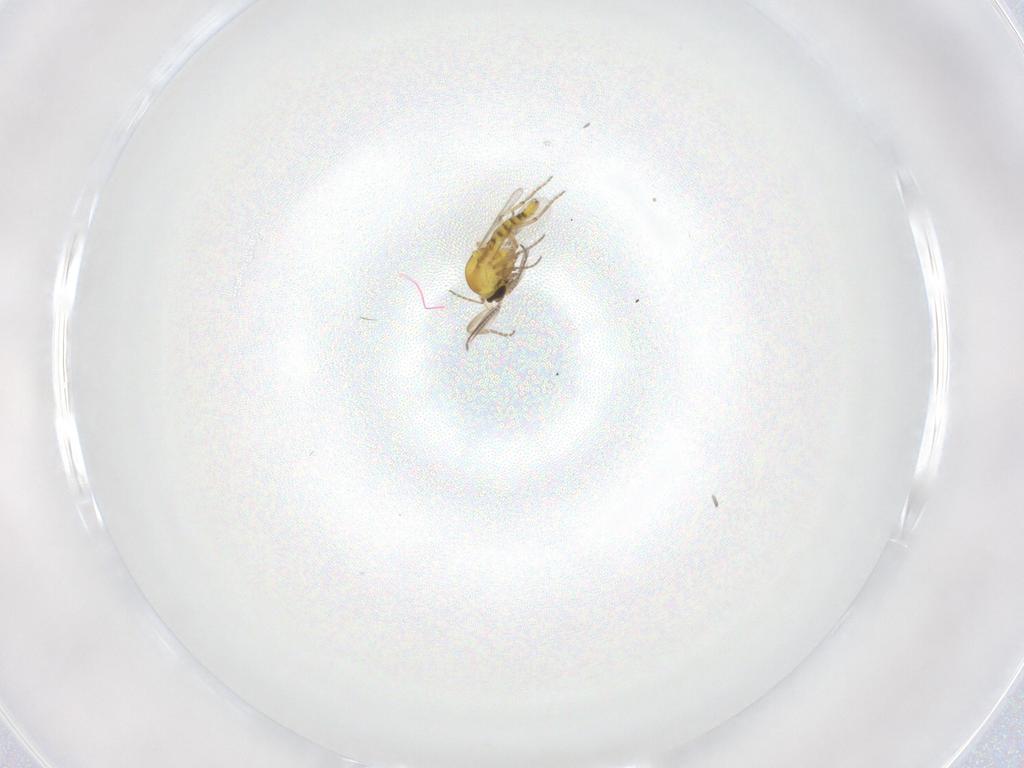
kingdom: Animalia
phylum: Arthropoda
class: Insecta
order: Diptera
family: Ceratopogonidae
